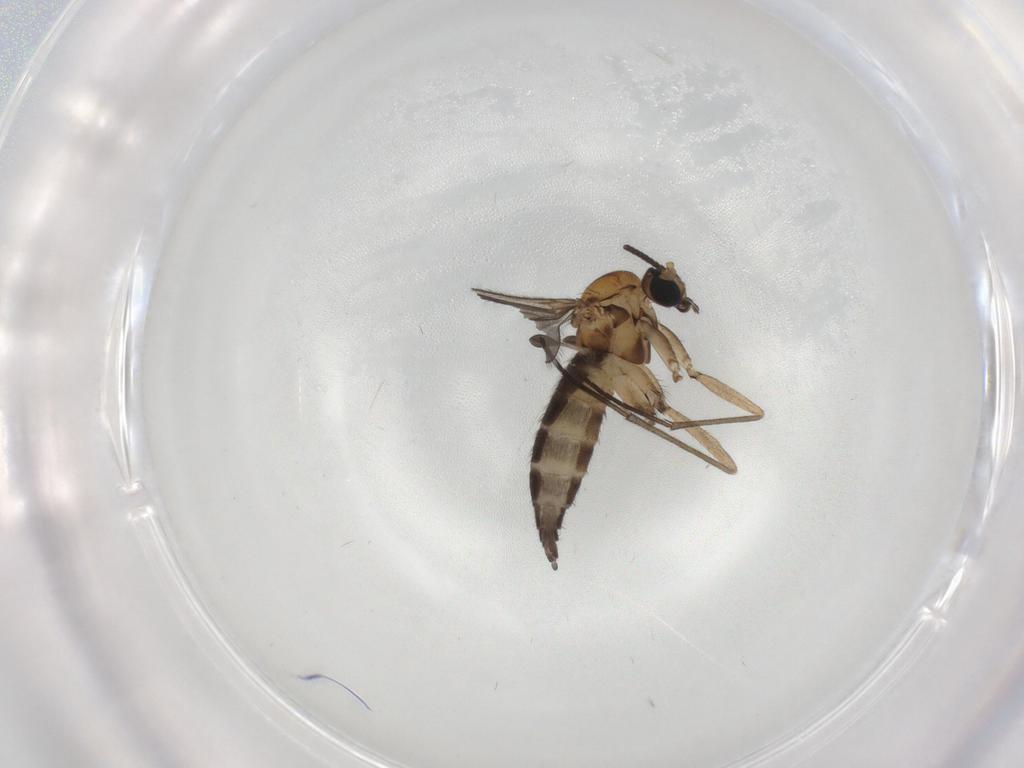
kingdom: Animalia
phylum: Arthropoda
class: Insecta
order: Diptera
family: Sciaridae
